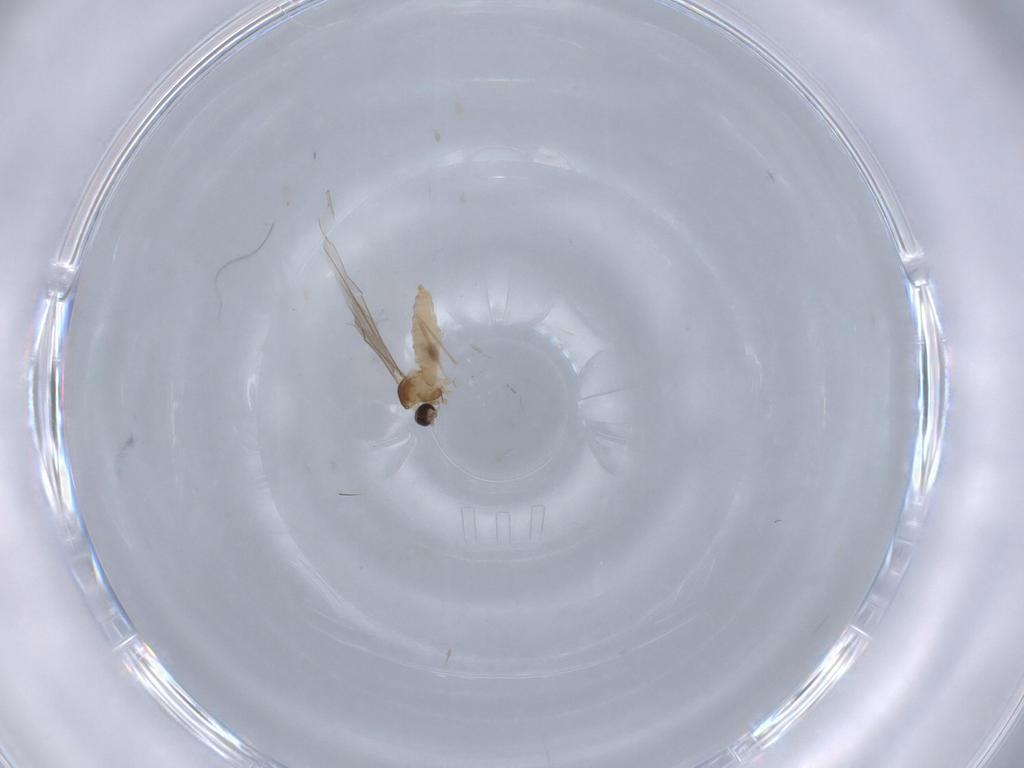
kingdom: Animalia
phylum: Arthropoda
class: Insecta
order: Diptera
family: Cecidomyiidae
